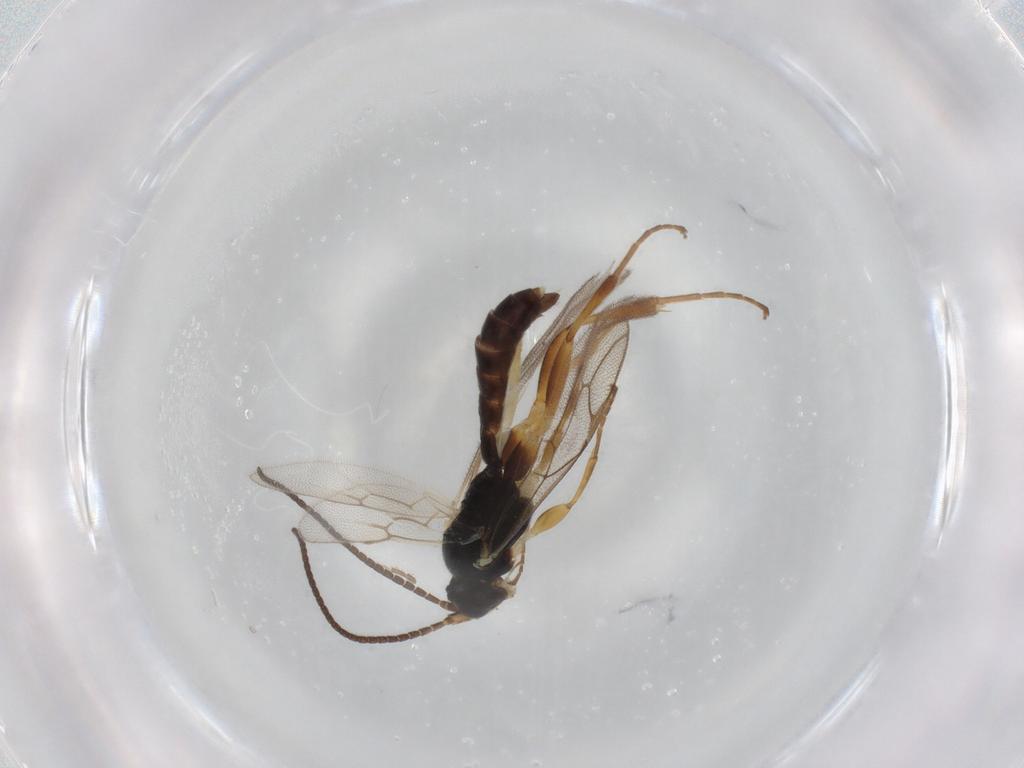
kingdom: Animalia
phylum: Arthropoda
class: Insecta
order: Hymenoptera
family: Ichneumonidae
